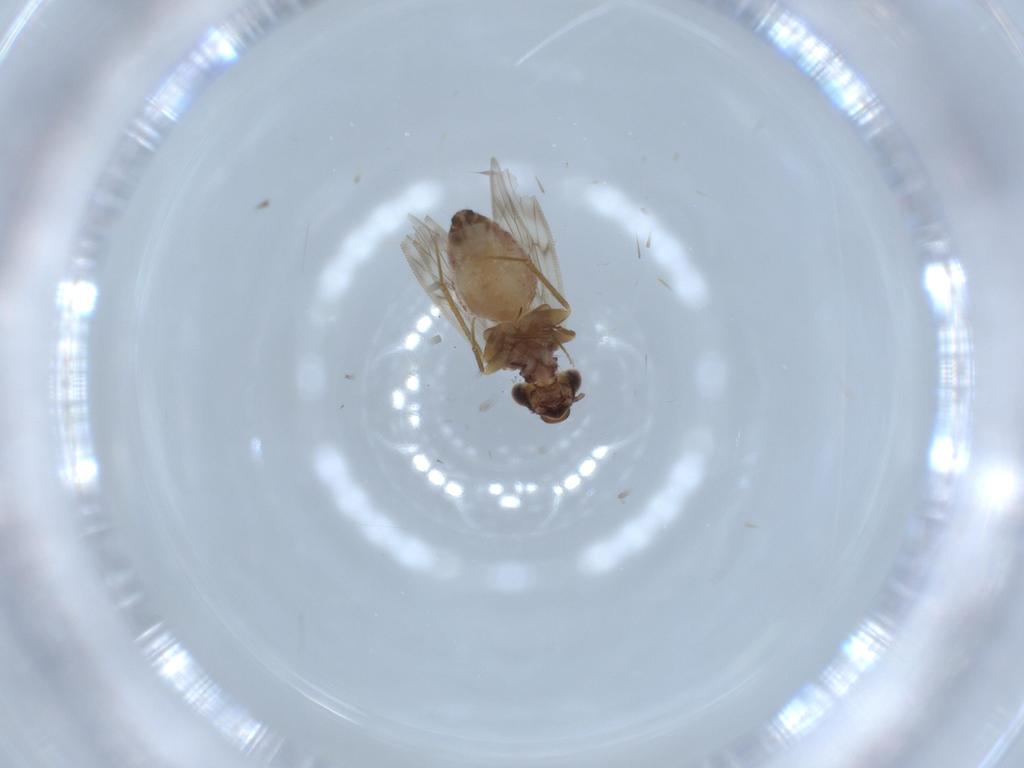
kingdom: Animalia
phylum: Arthropoda
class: Insecta
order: Psocodea
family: Lepidopsocidae
